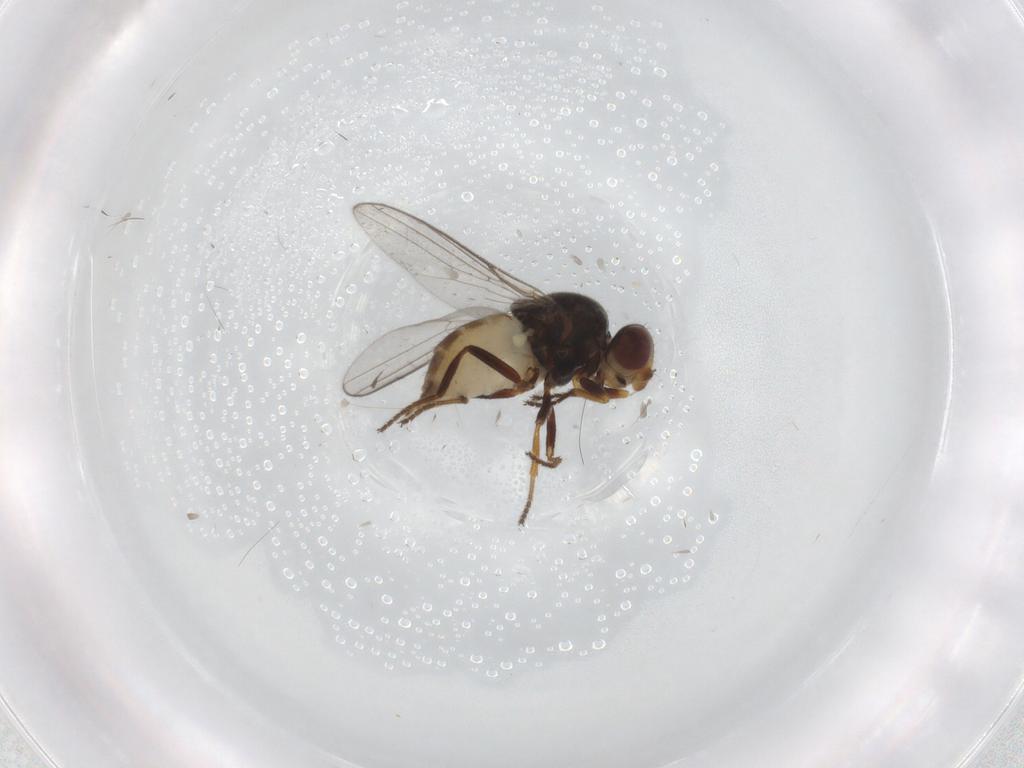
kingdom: Animalia
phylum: Arthropoda
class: Insecta
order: Diptera
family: Chloropidae
